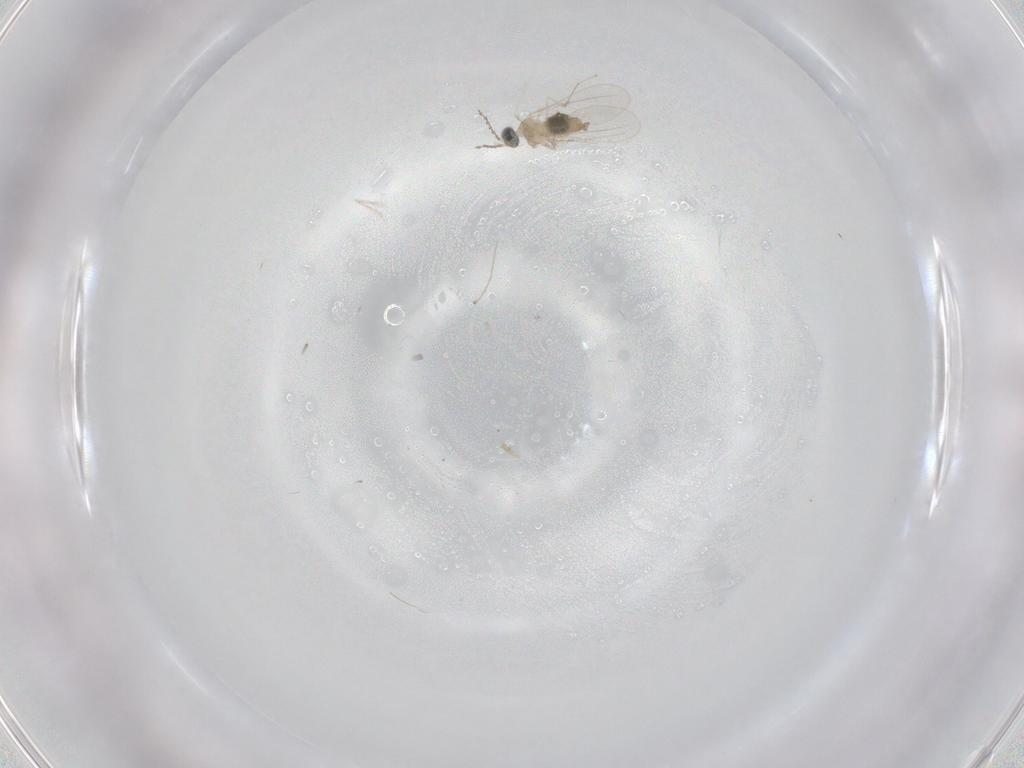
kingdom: Animalia
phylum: Arthropoda
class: Insecta
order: Diptera
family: Cecidomyiidae
